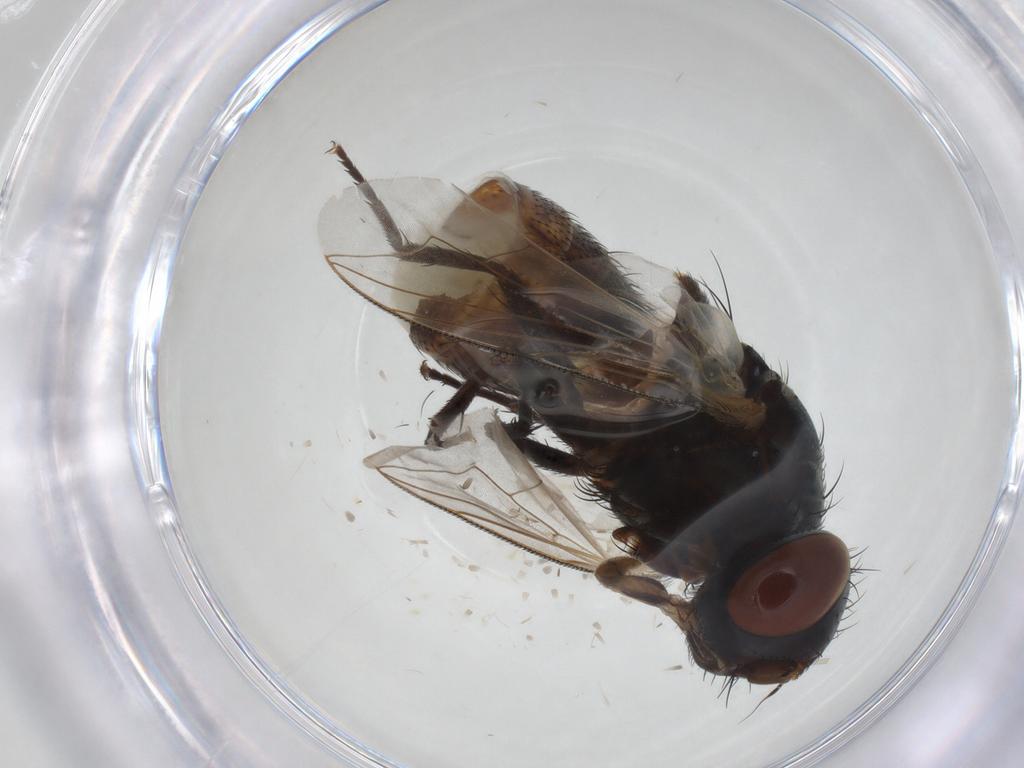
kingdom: Animalia
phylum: Arthropoda
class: Insecta
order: Diptera
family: Sarcophagidae
